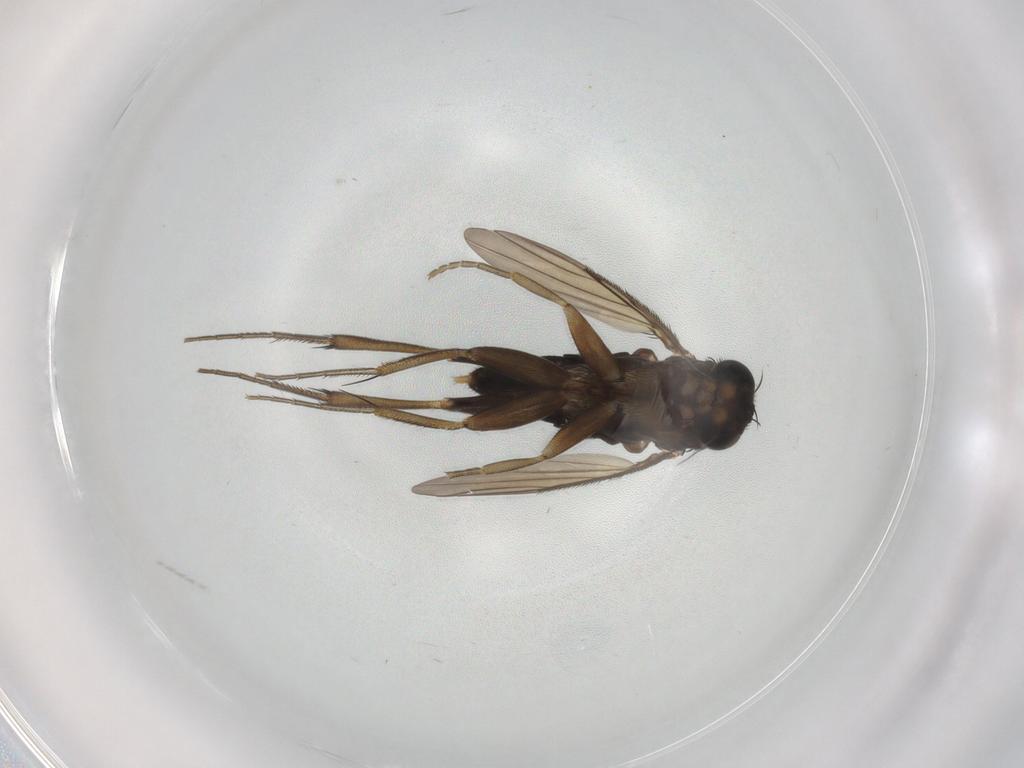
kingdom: Animalia
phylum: Arthropoda
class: Insecta
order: Diptera
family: Phoridae
